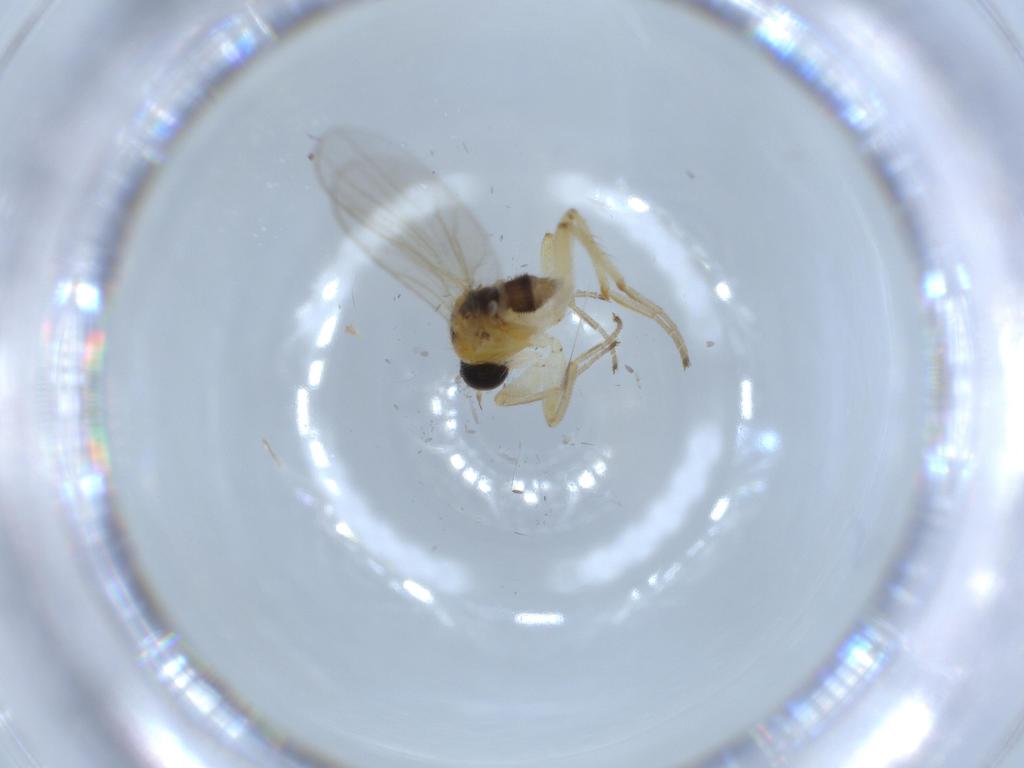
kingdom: Animalia
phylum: Arthropoda
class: Insecta
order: Diptera
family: Hybotidae
